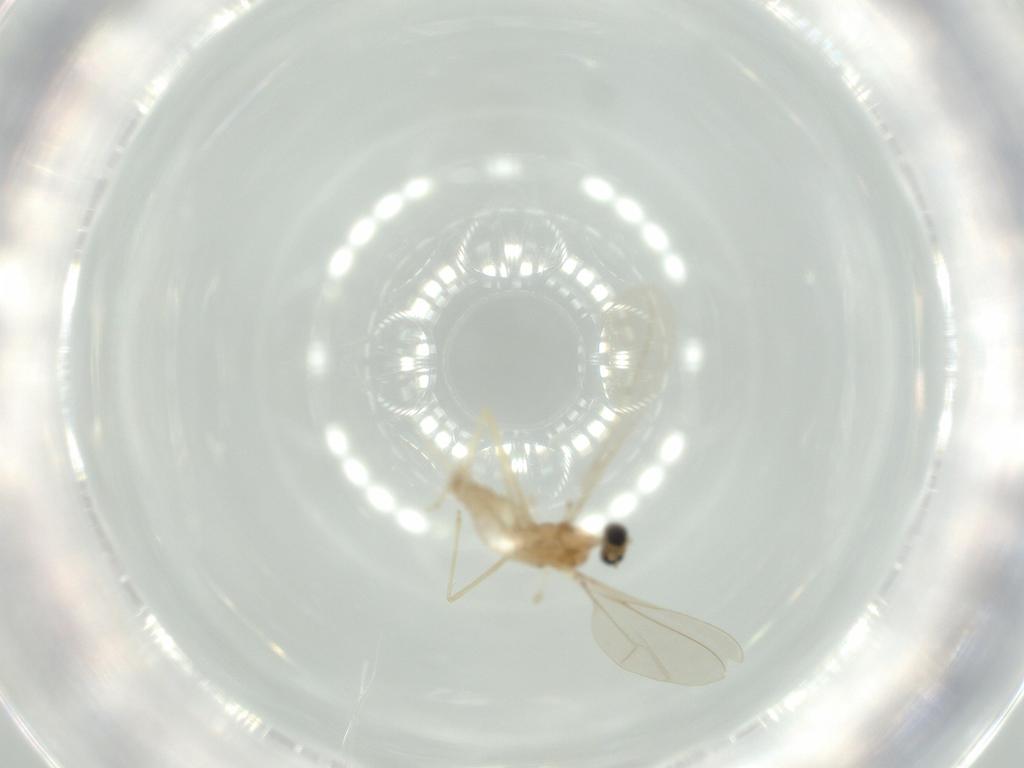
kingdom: Animalia
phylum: Arthropoda
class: Insecta
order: Diptera
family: Cecidomyiidae
